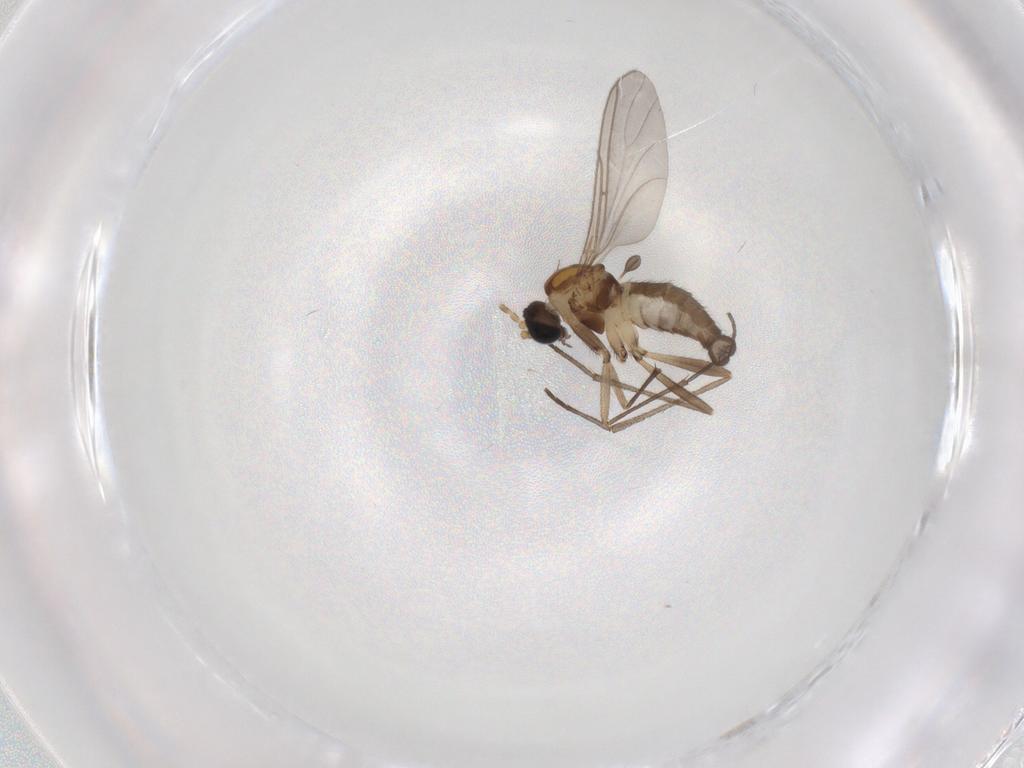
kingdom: Animalia
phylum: Arthropoda
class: Insecta
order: Diptera
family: Sciaridae
